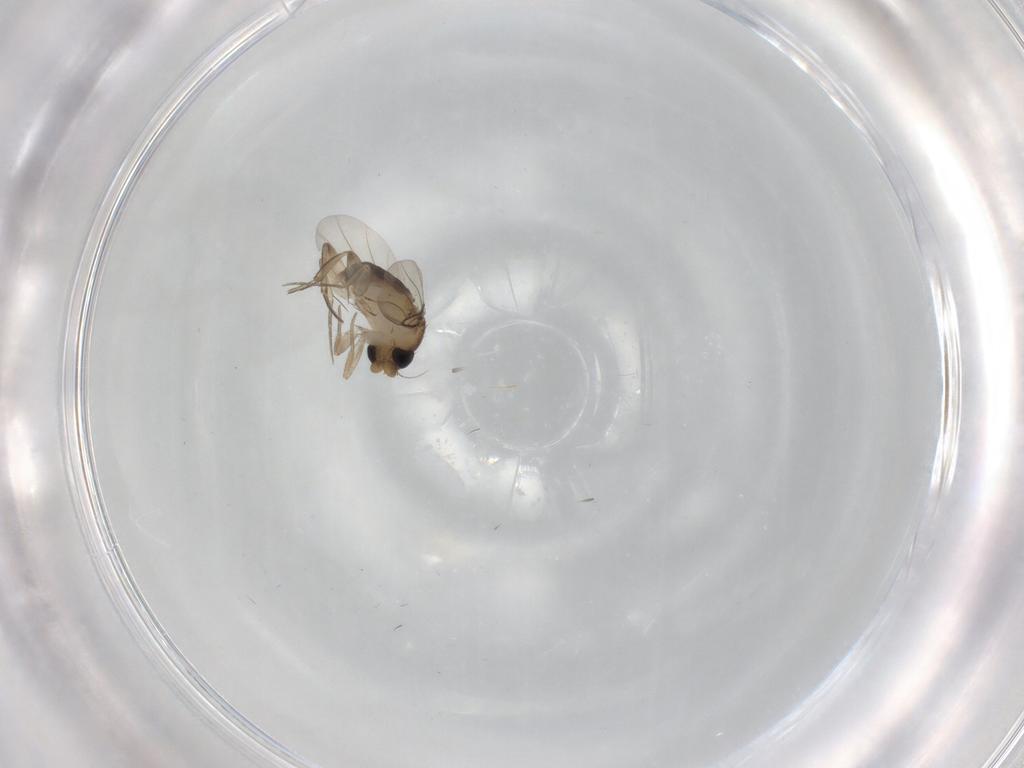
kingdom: Animalia
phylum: Arthropoda
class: Insecta
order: Diptera
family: Phoridae
